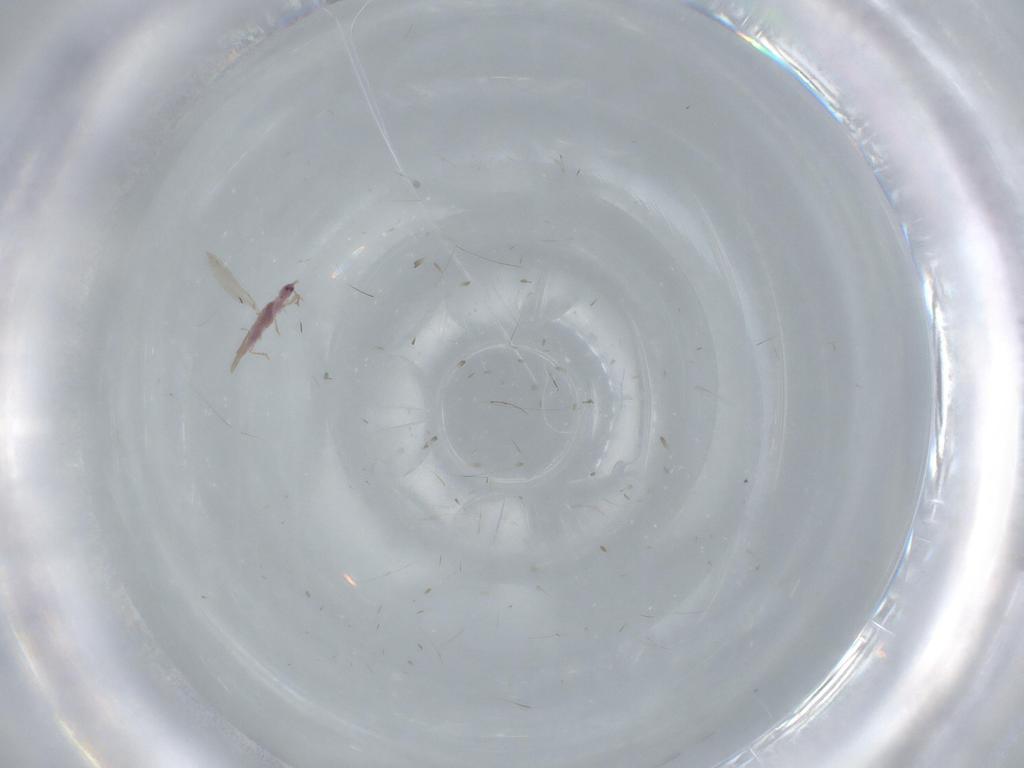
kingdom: Animalia
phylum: Arthropoda
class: Insecta
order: Hemiptera
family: Pseudococcidae
